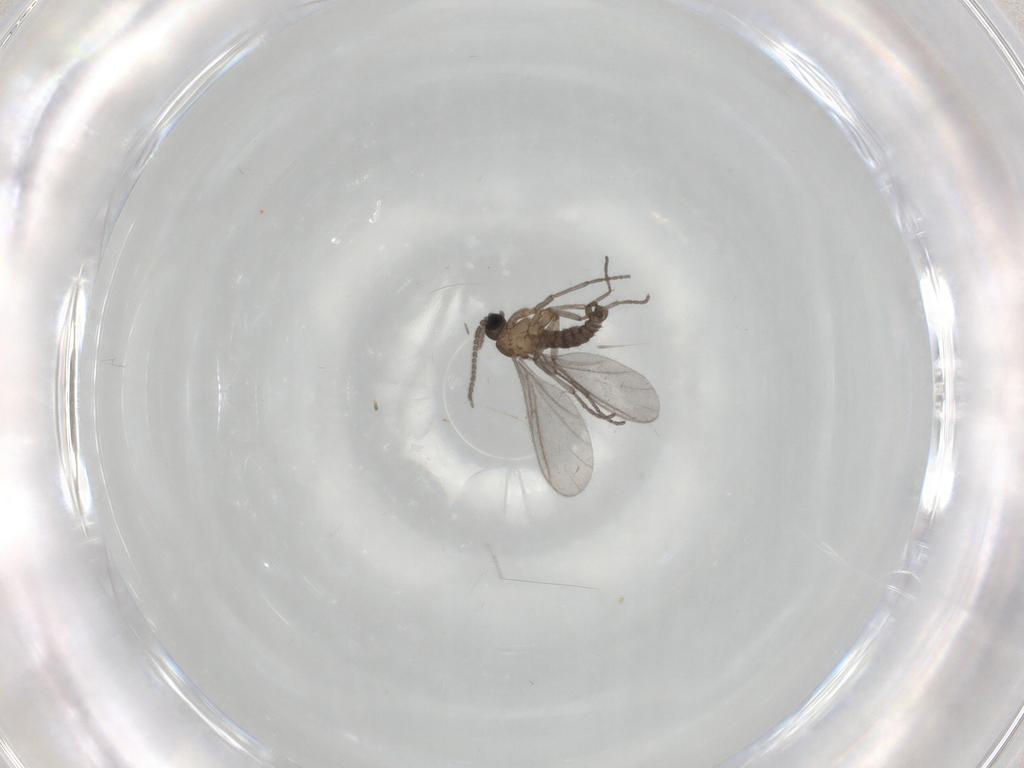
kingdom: Animalia
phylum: Arthropoda
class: Insecta
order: Diptera
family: Sciaridae
